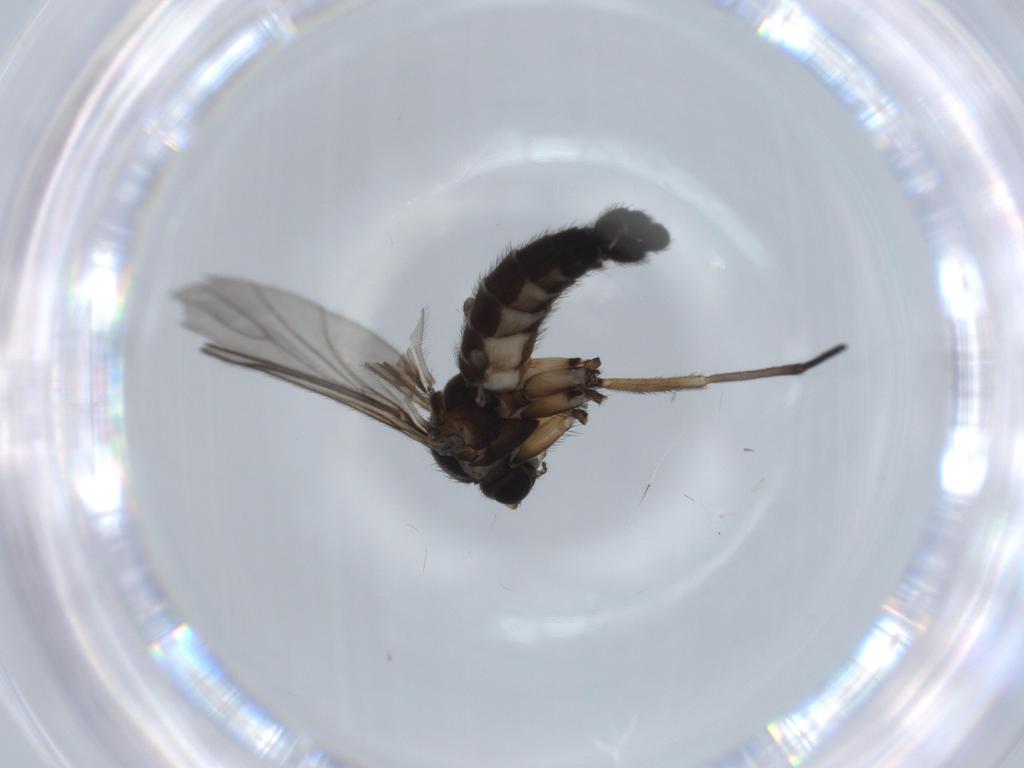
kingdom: Animalia
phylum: Arthropoda
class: Insecta
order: Diptera
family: Sciaridae
